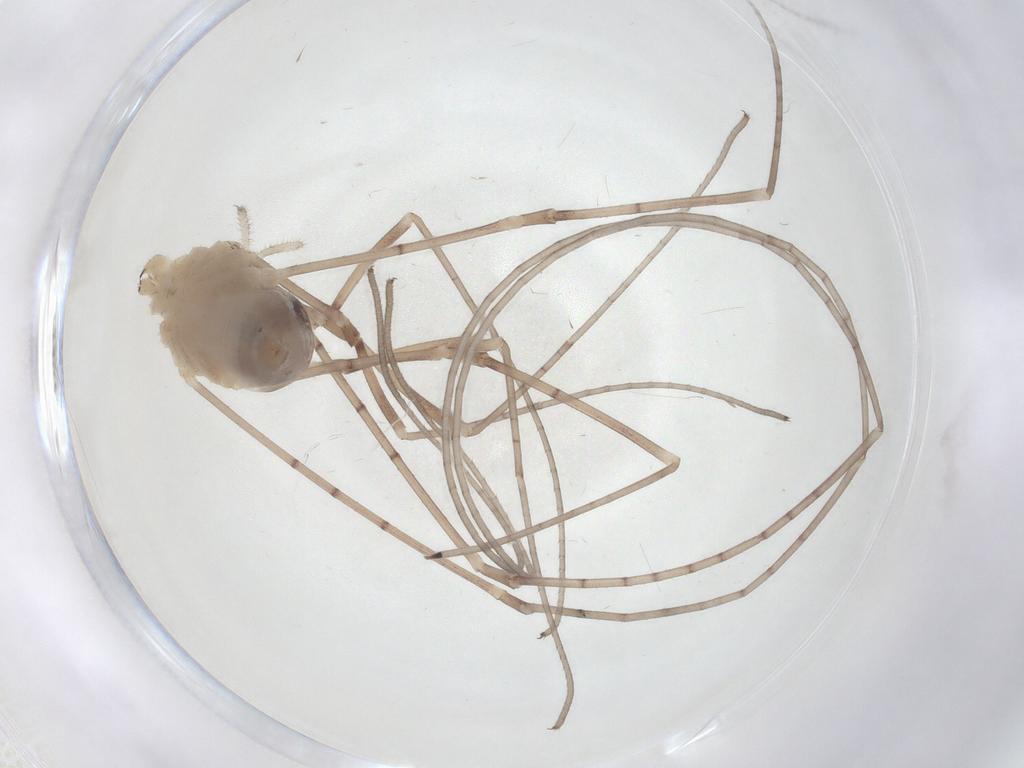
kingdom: Animalia
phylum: Arthropoda
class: Arachnida
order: Opiliones
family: Sclerosomatidae
